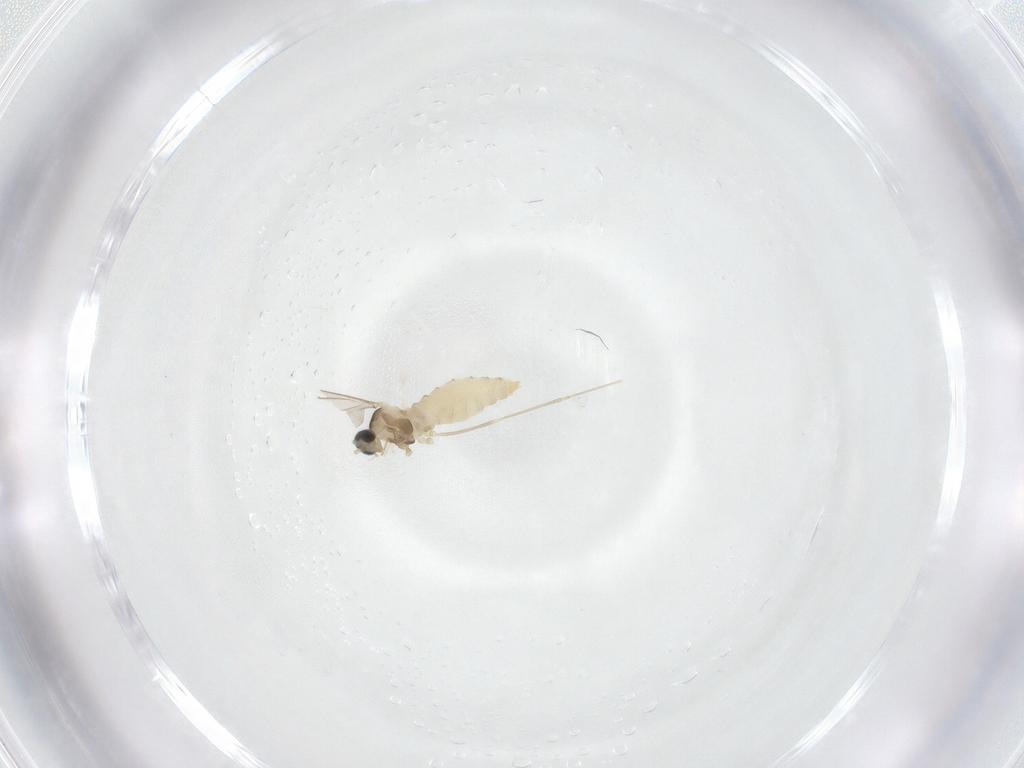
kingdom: Animalia
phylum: Arthropoda
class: Insecta
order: Diptera
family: Cecidomyiidae
